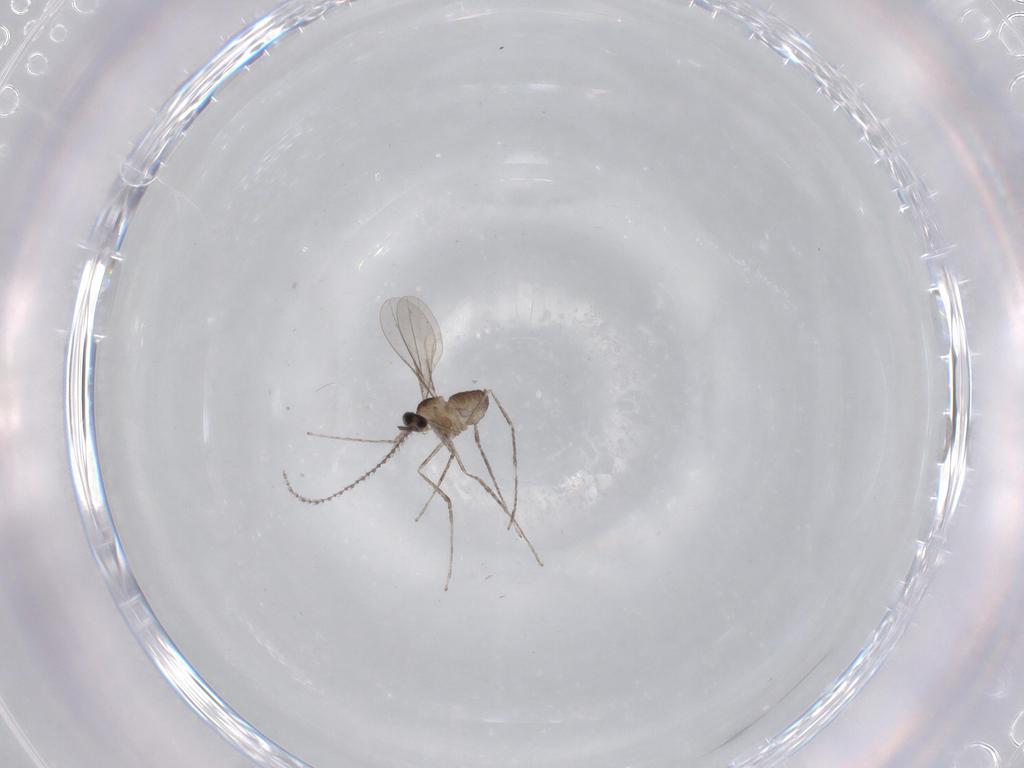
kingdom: Animalia
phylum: Arthropoda
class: Insecta
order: Diptera
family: Cecidomyiidae
